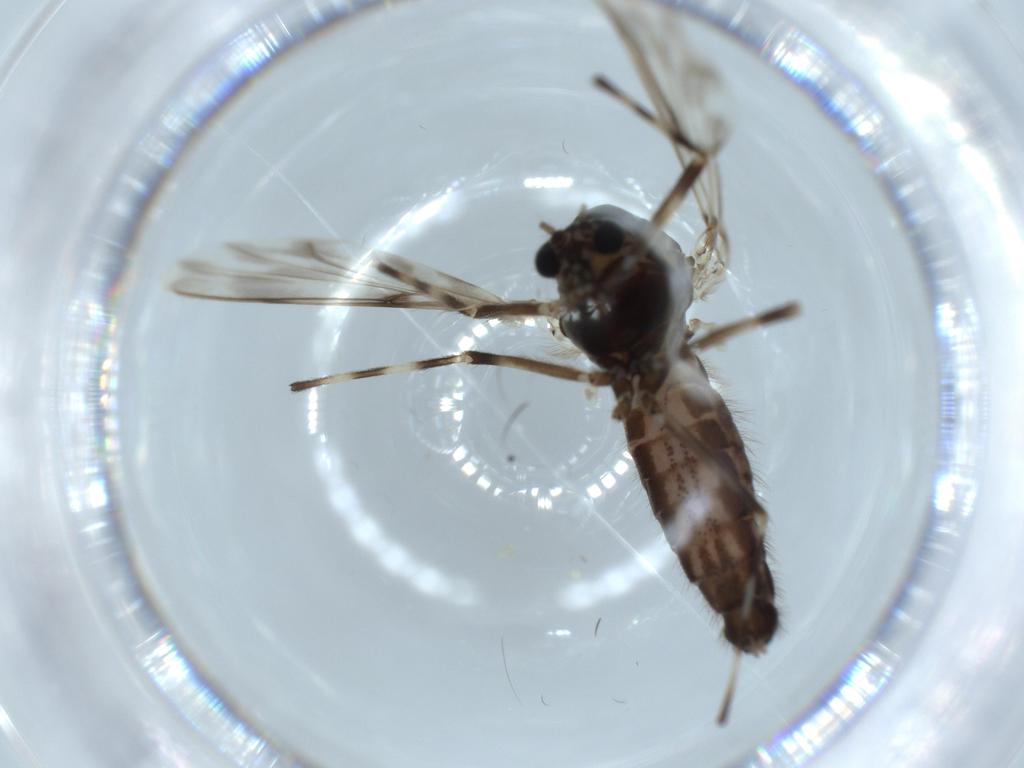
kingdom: Animalia
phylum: Arthropoda
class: Insecta
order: Diptera
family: Chironomidae
